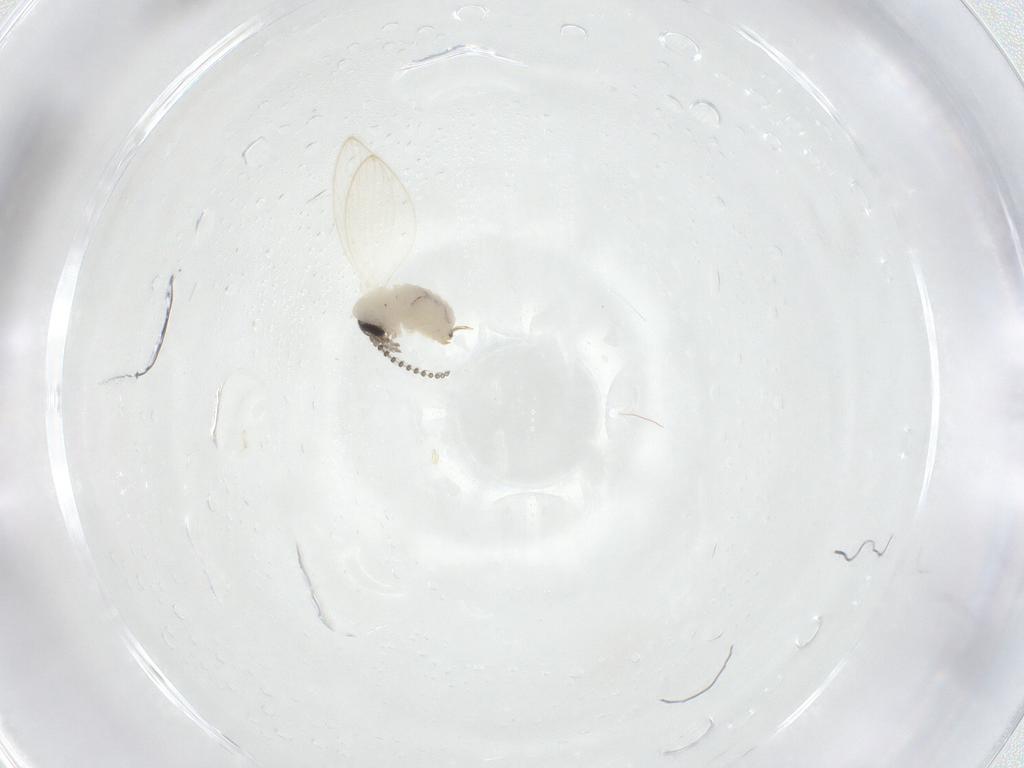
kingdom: Animalia
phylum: Arthropoda
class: Insecta
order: Diptera
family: Psychodidae
